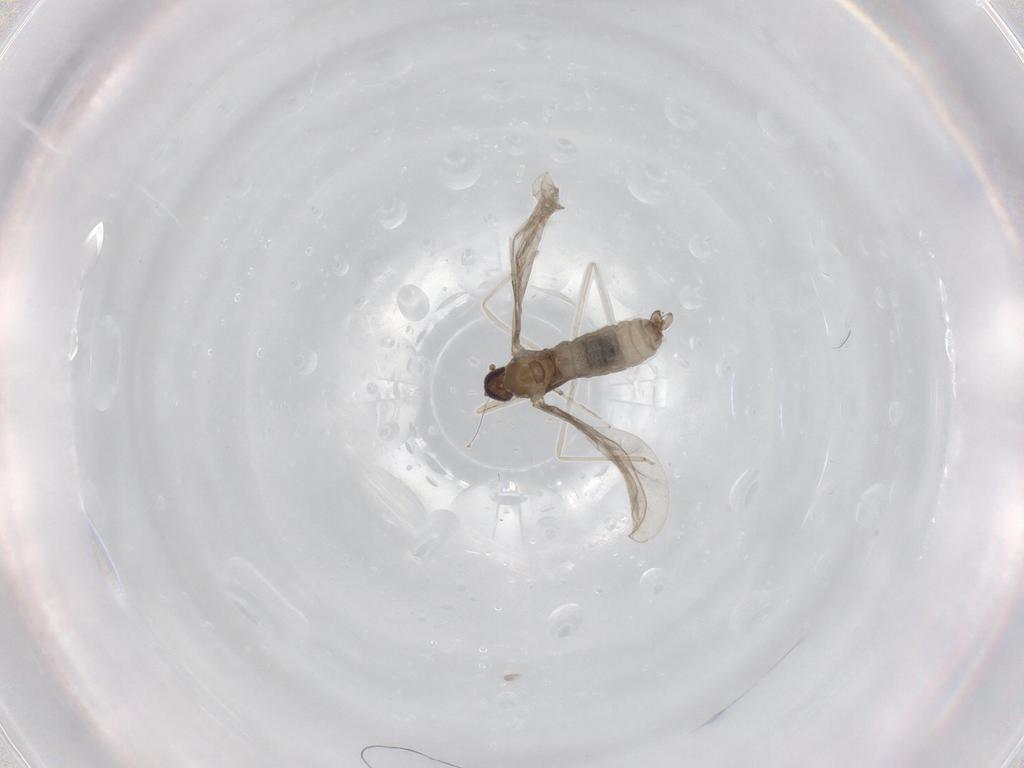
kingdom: Animalia
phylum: Arthropoda
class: Insecta
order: Diptera
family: Cecidomyiidae
